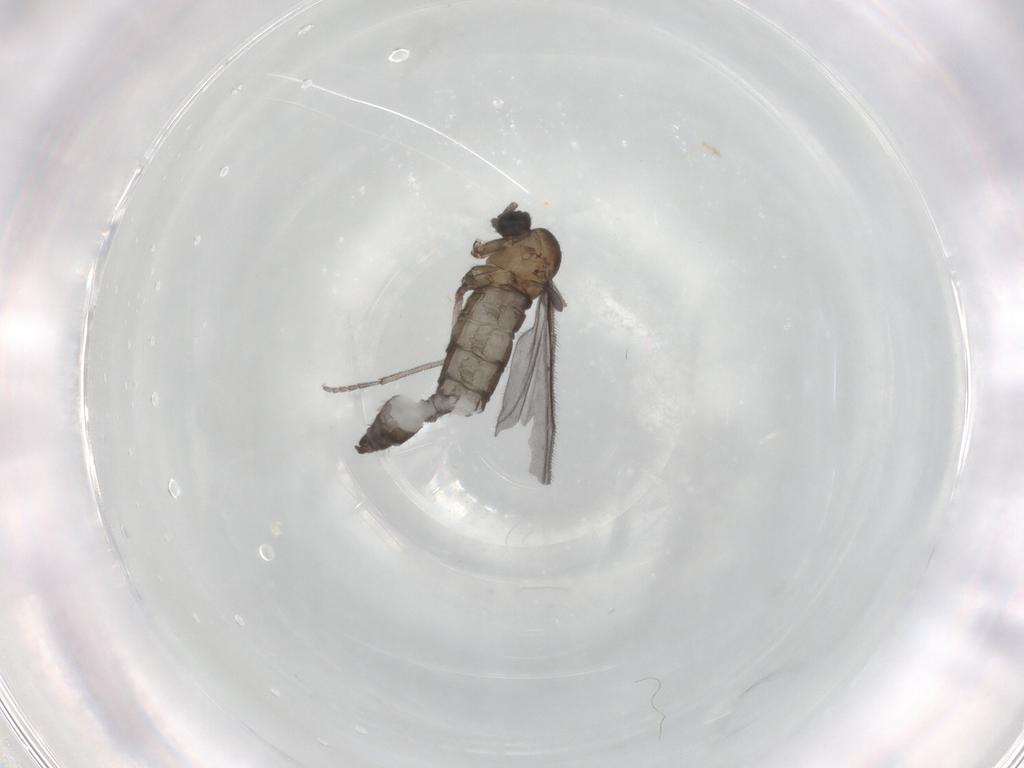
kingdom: Animalia
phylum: Arthropoda
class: Insecta
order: Diptera
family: Sciaridae
